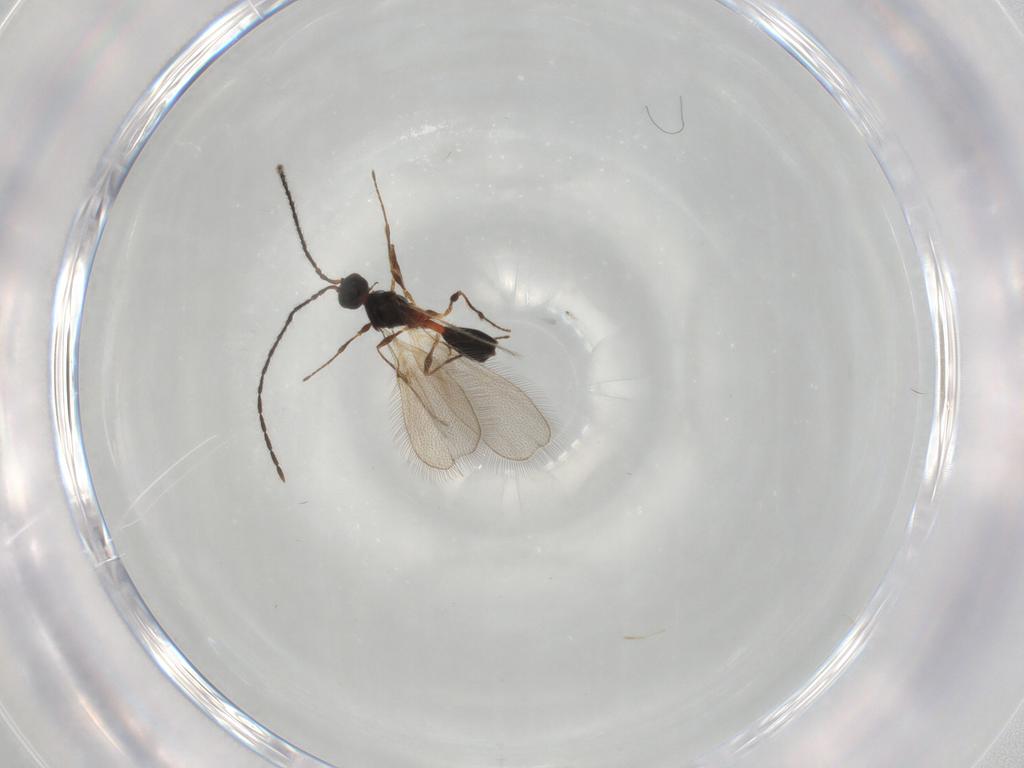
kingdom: Animalia
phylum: Arthropoda
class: Insecta
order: Hymenoptera
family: Diapriidae
